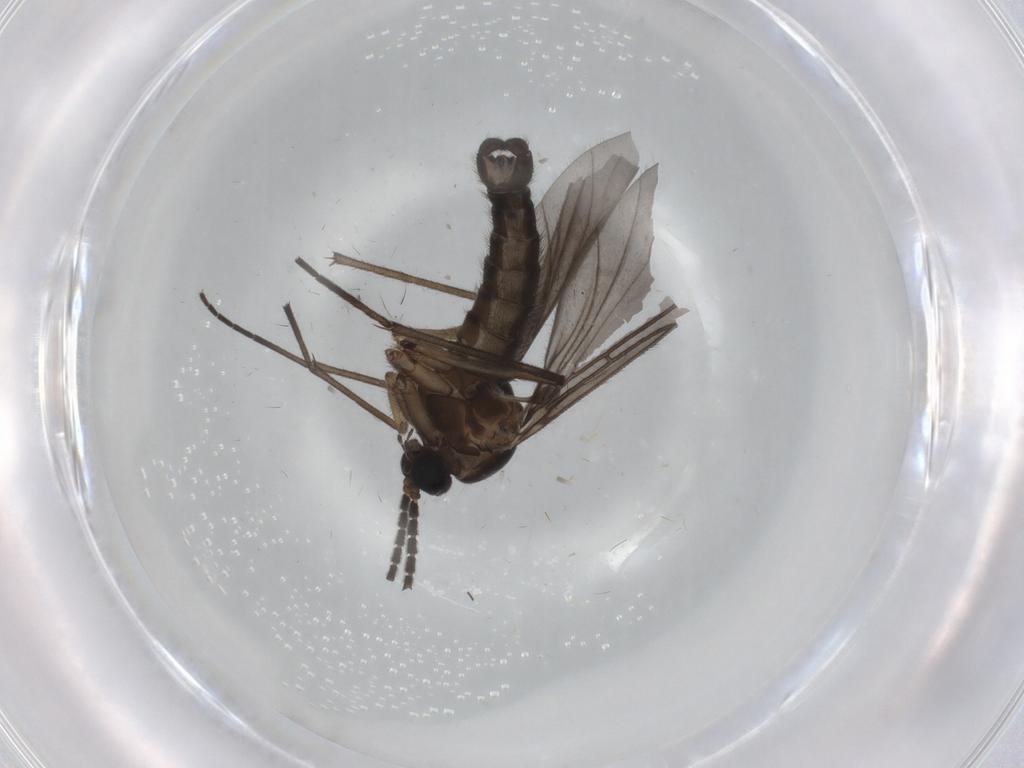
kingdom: Animalia
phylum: Arthropoda
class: Insecta
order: Diptera
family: Sciaridae
